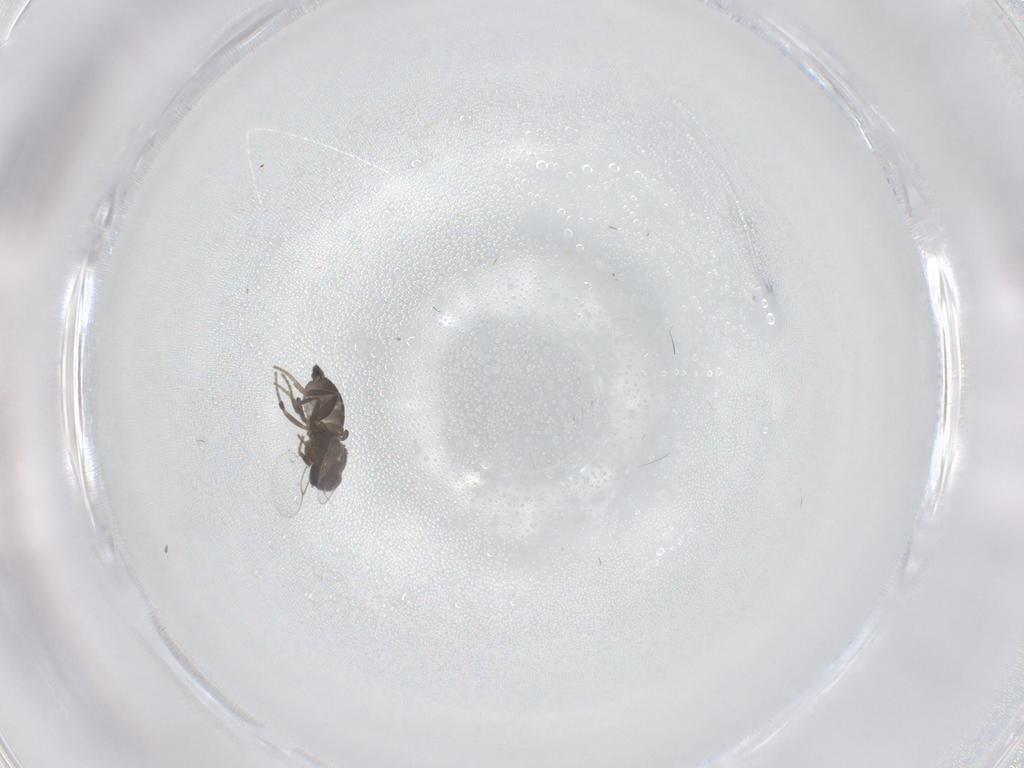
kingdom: Animalia
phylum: Arthropoda
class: Insecta
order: Diptera
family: Phoridae
